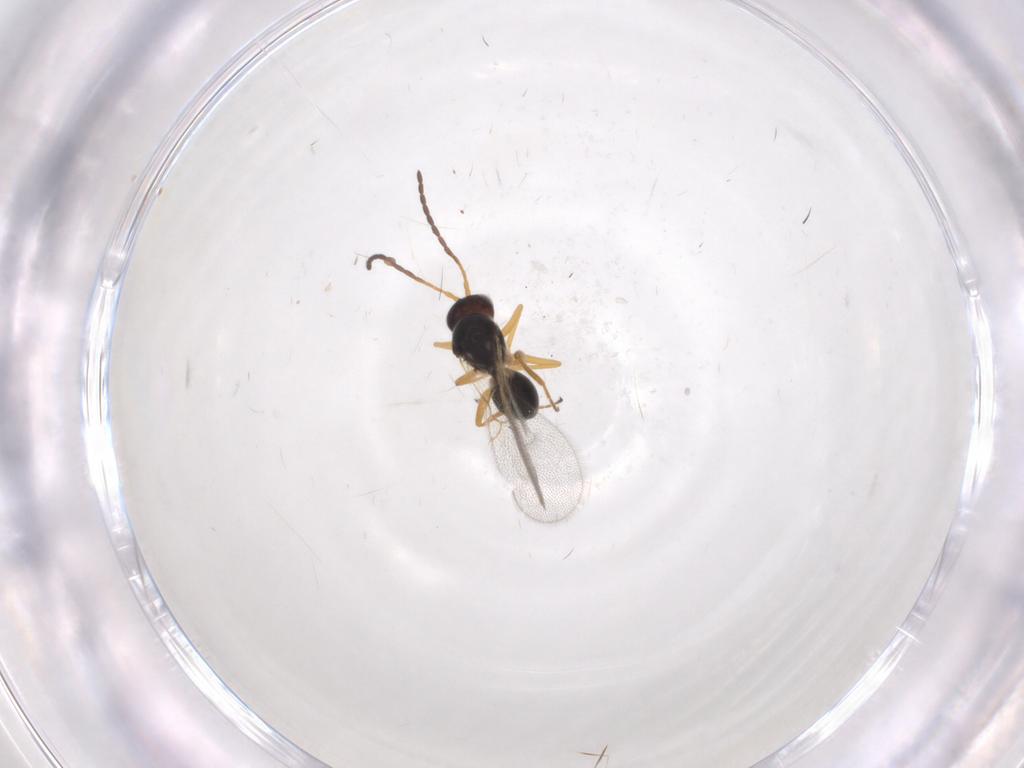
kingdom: Animalia
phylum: Arthropoda
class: Insecta
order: Hymenoptera
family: Figitidae
